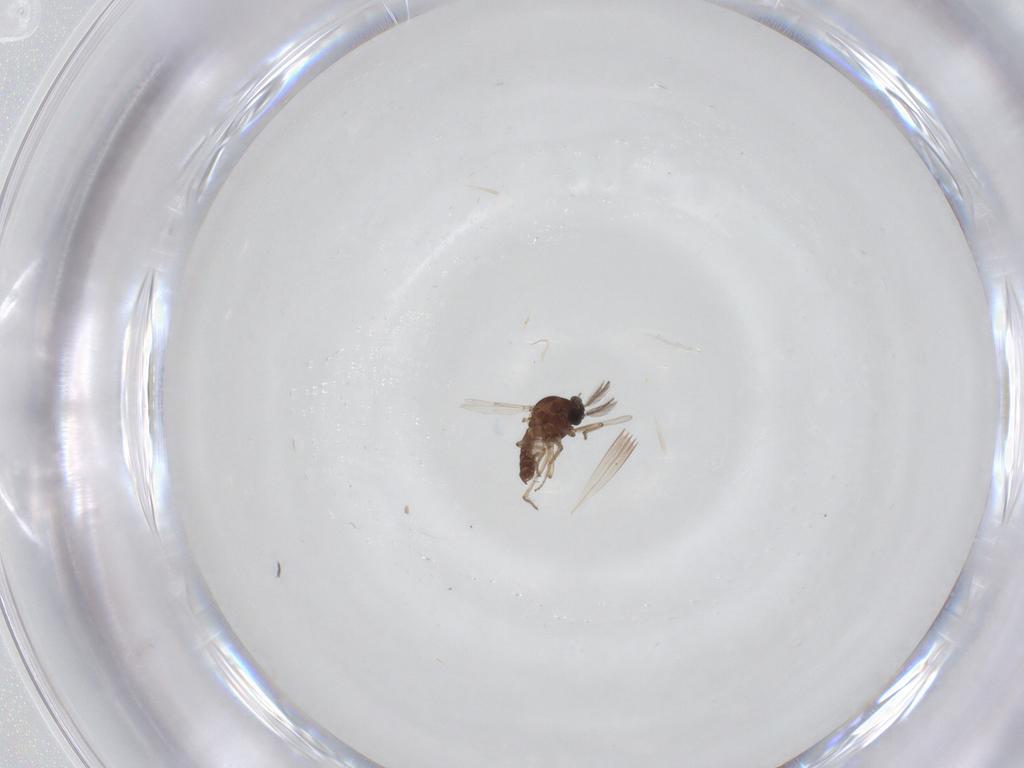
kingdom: Animalia
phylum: Arthropoda
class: Insecta
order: Diptera
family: Ceratopogonidae
